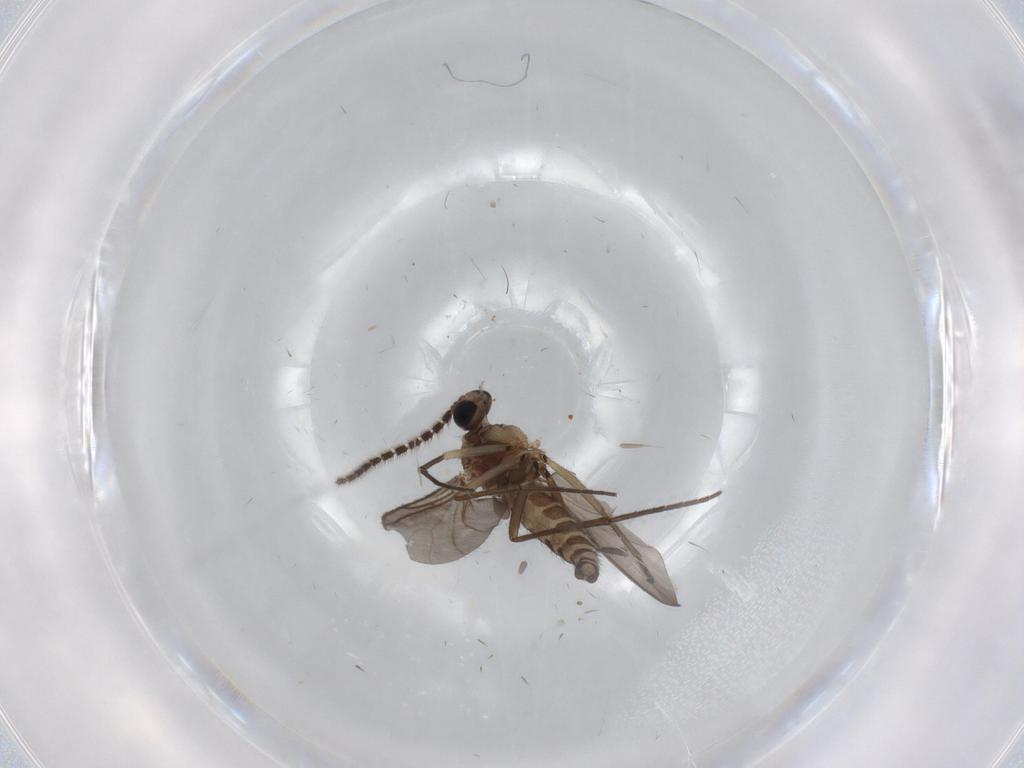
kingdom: Animalia
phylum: Arthropoda
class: Insecta
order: Diptera
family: Sciaridae
